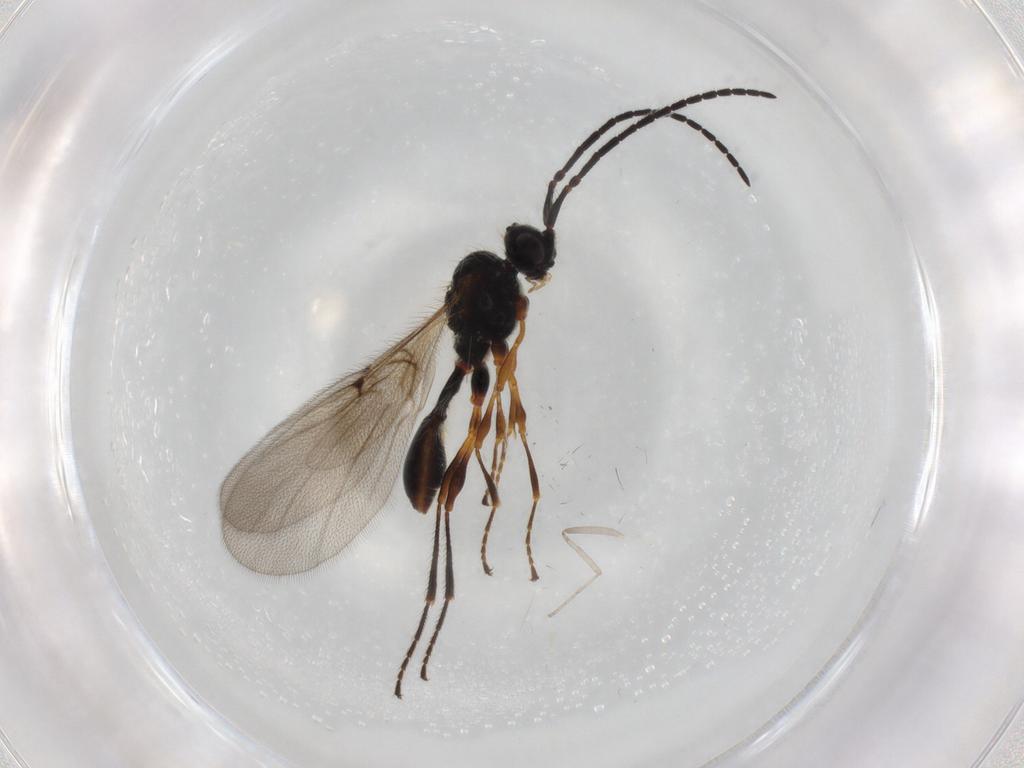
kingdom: Animalia
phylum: Arthropoda
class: Insecta
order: Hymenoptera
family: Diapriidae
